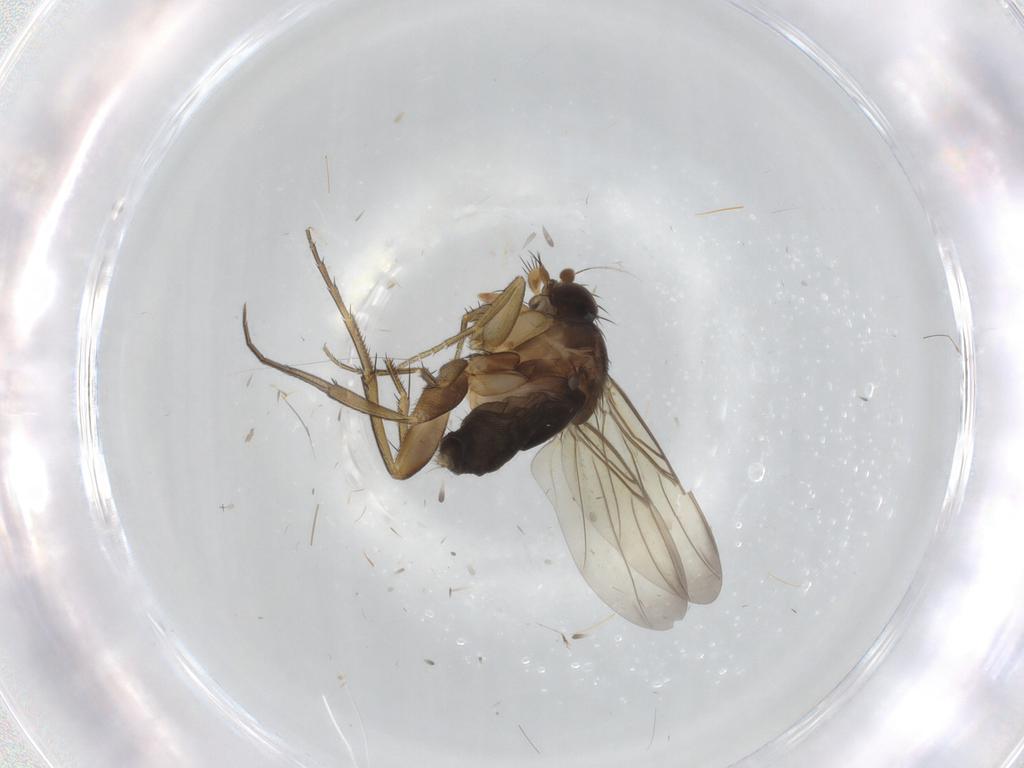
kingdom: Animalia
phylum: Arthropoda
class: Insecta
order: Diptera
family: Phoridae
